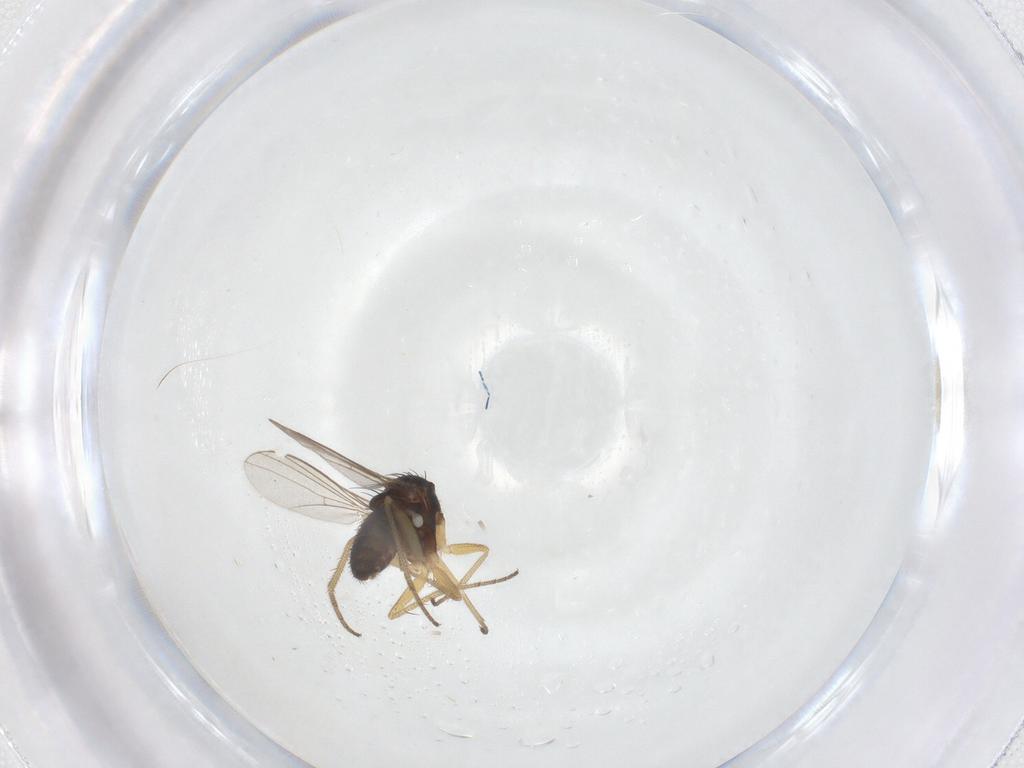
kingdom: Animalia
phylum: Arthropoda
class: Insecta
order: Diptera
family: Dolichopodidae
